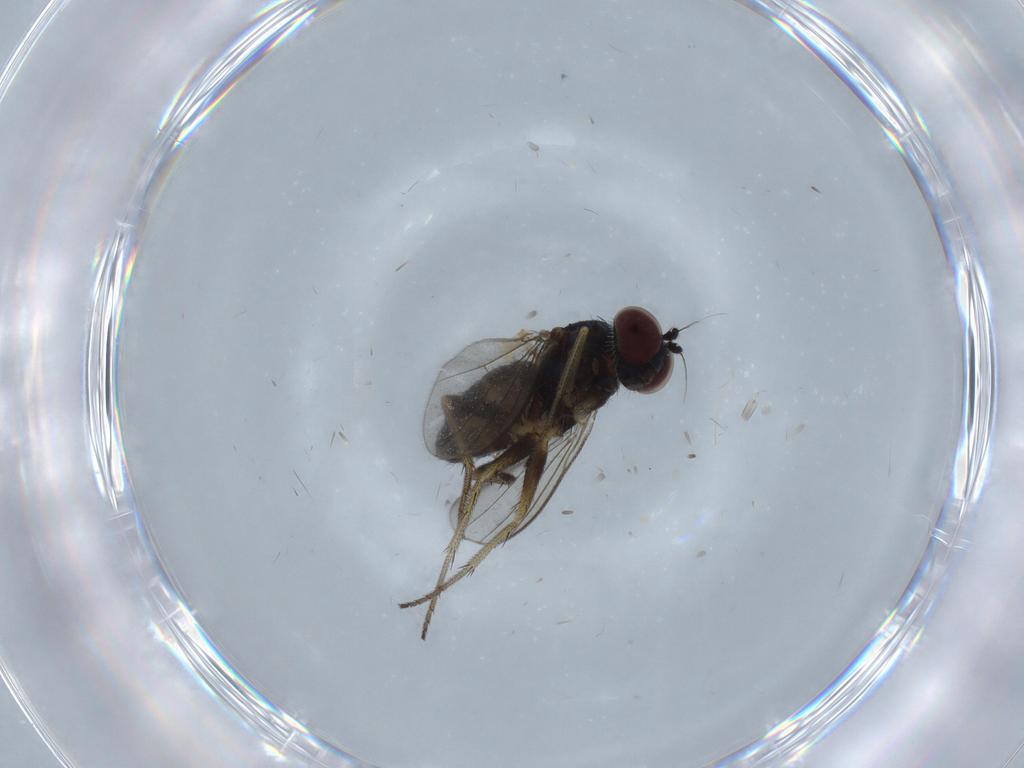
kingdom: Animalia
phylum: Arthropoda
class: Insecta
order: Diptera
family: Dolichopodidae
